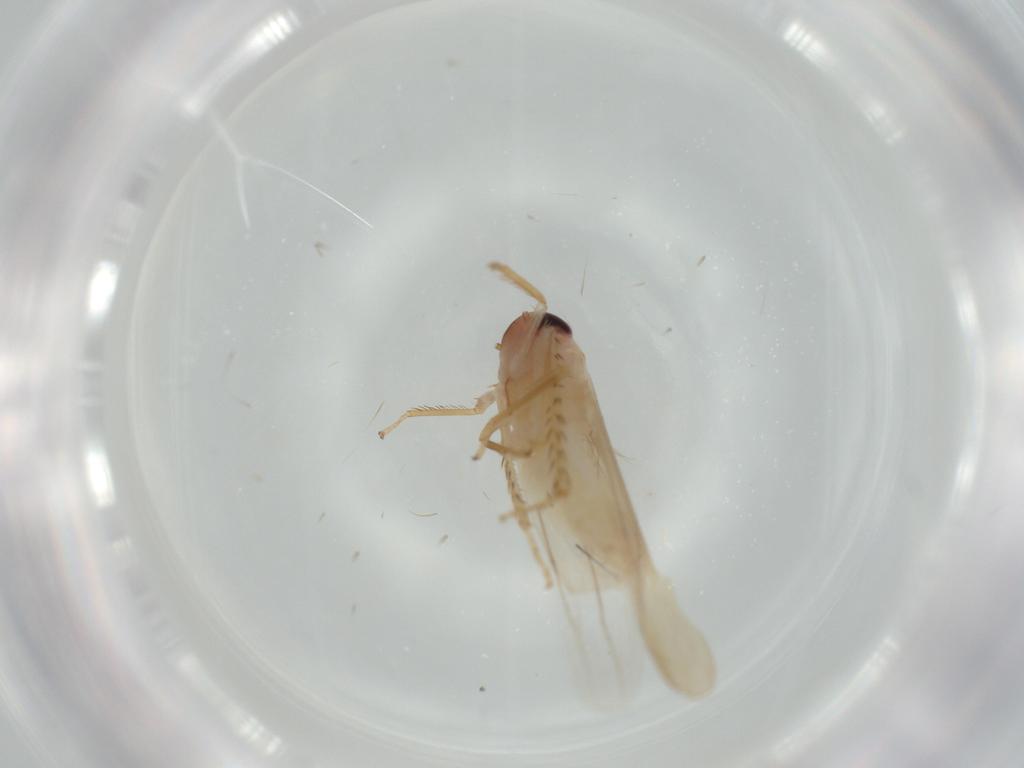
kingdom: Animalia
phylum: Arthropoda
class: Insecta
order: Hemiptera
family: Cicadellidae
